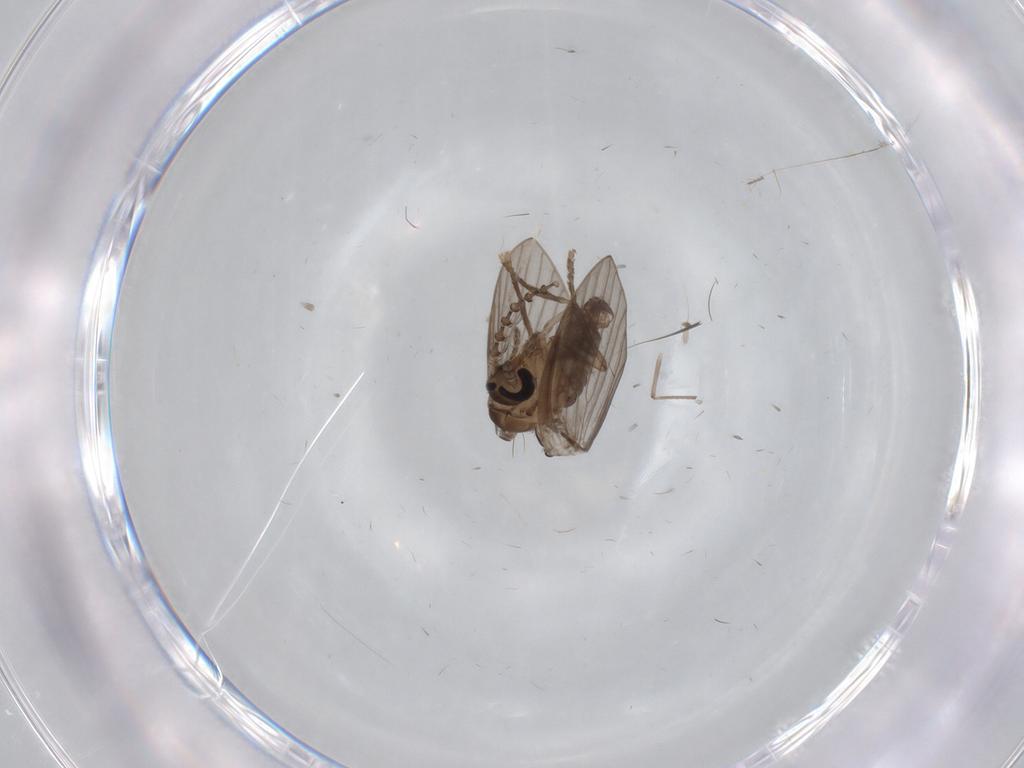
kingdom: Animalia
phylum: Arthropoda
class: Insecta
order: Diptera
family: Psychodidae
